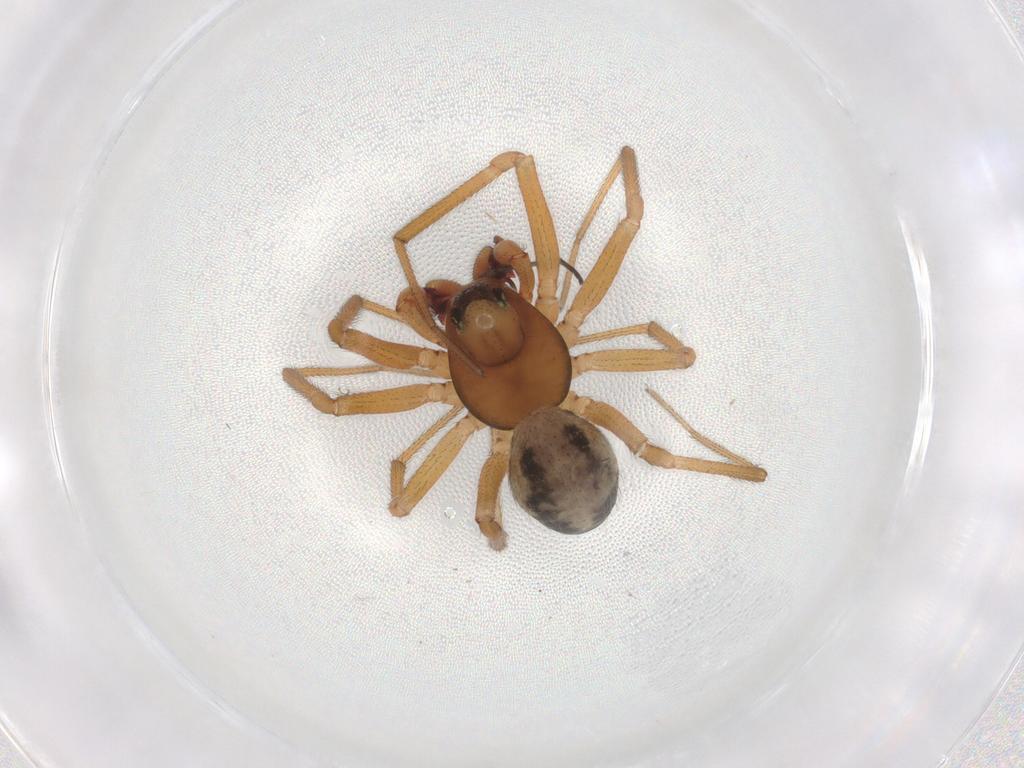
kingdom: Animalia
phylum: Arthropoda
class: Arachnida
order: Araneae
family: Linyphiidae
